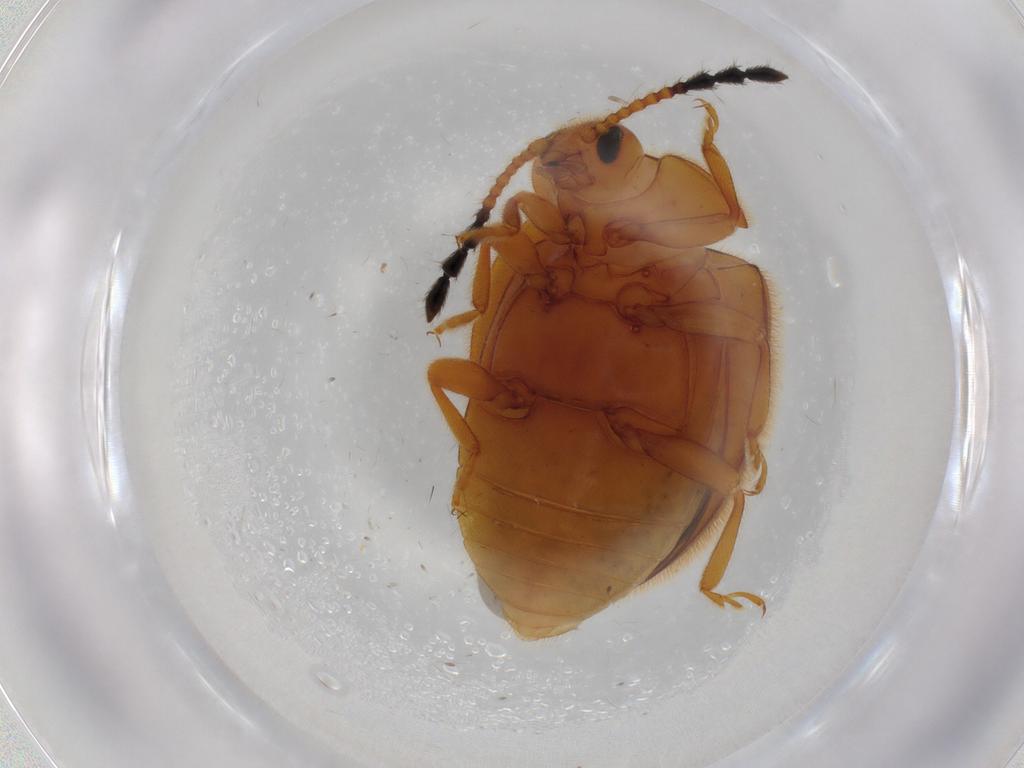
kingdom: Animalia
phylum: Arthropoda
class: Insecta
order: Coleoptera
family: Endomychidae
